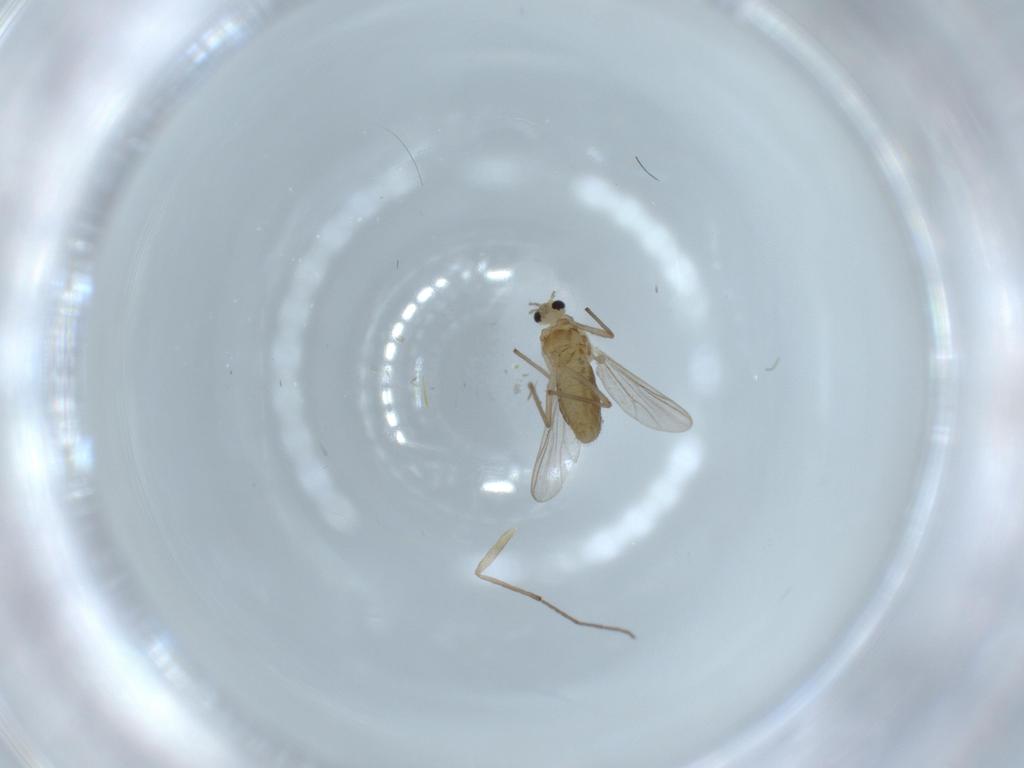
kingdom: Animalia
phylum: Arthropoda
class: Insecta
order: Diptera
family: Chironomidae
